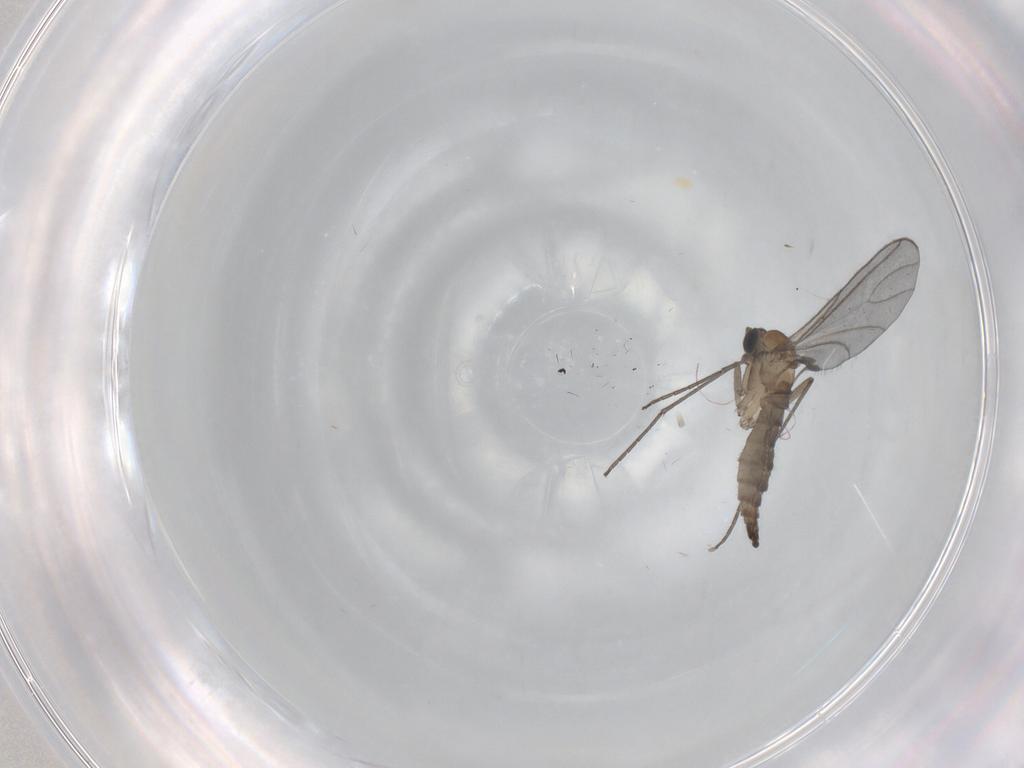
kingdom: Animalia
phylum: Arthropoda
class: Insecta
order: Diptera
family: Sciaridae
